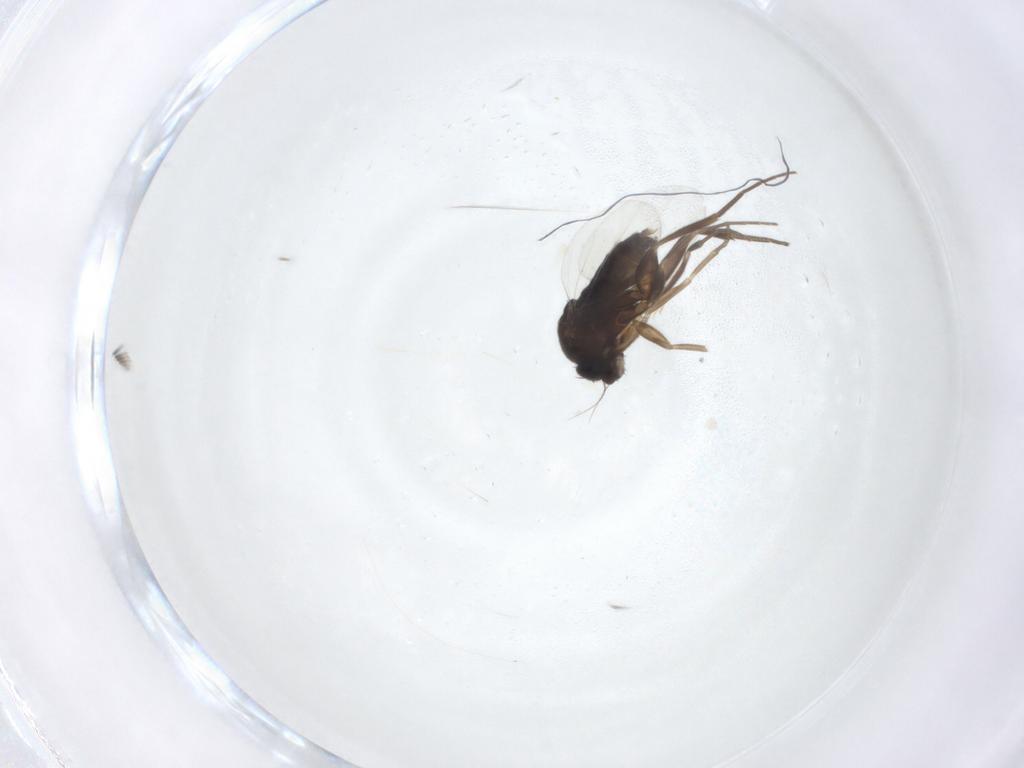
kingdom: Animalia
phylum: Arthropoda
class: Insecta
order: Diptera
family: Phoridae
